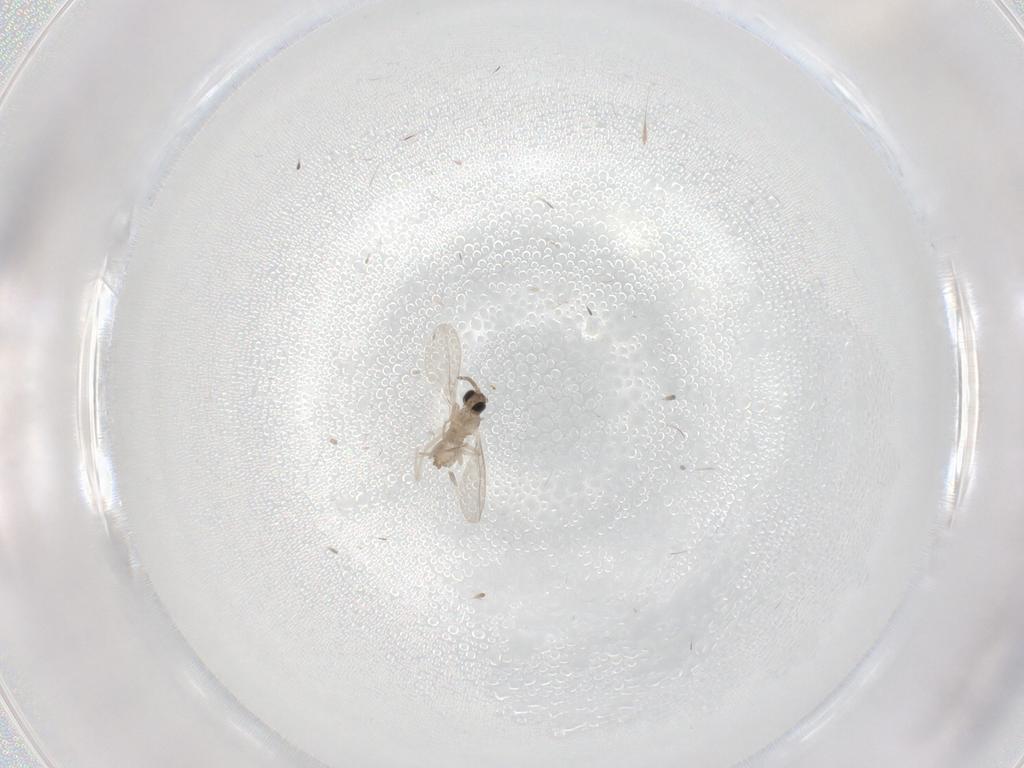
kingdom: Animalia
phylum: Arthropoda
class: Insecta
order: Diptera
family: Cecidomyiidae
